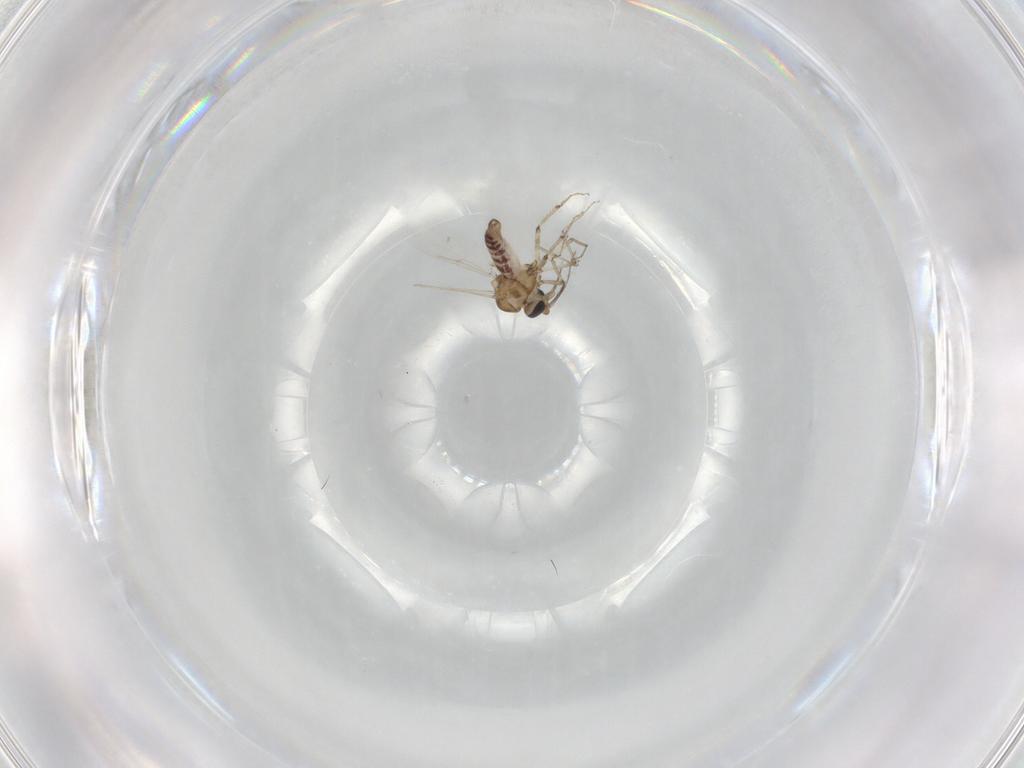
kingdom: Animalia
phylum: Arthropoda
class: Insecta
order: Diptera
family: Ceratopogonidae
